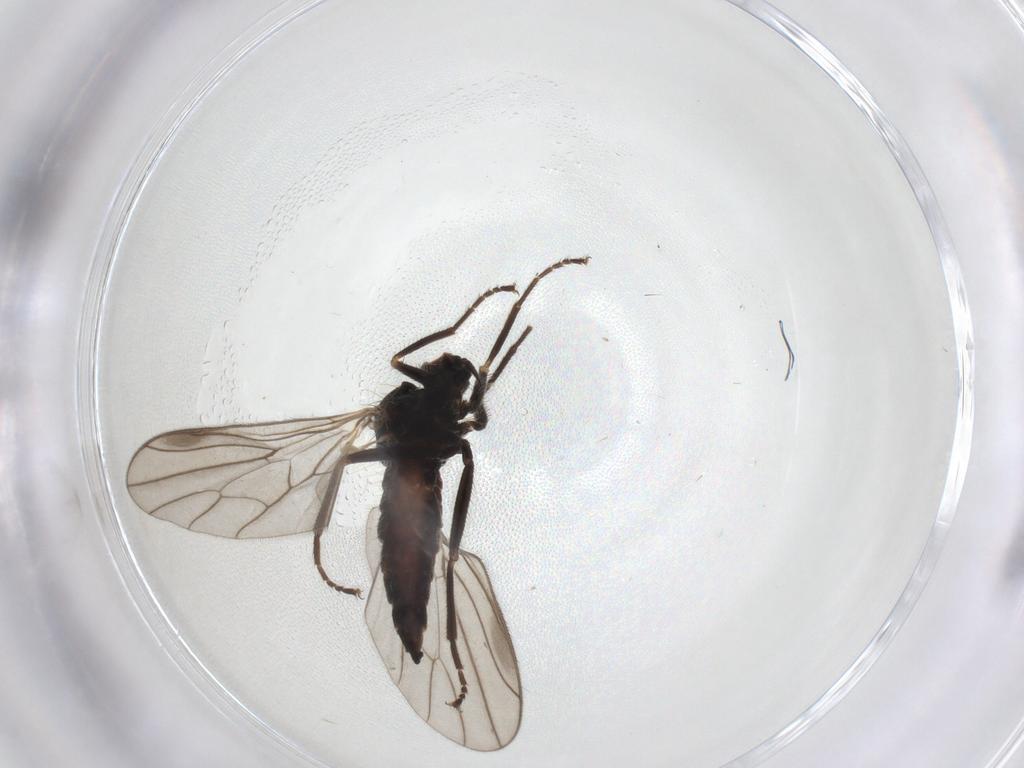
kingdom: Animalia
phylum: Arthropoda
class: Insecta
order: Diptera
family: Hybotidae
